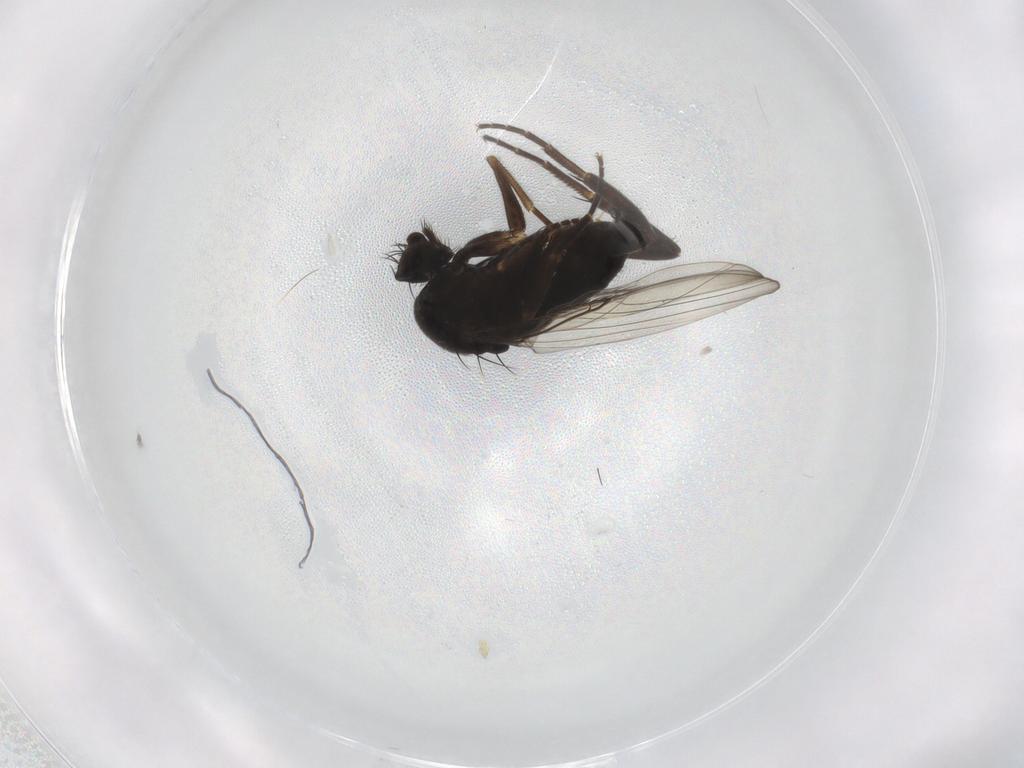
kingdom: Animalia
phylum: Arthropoda
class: Insecta
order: Diptera
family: Phoridae
